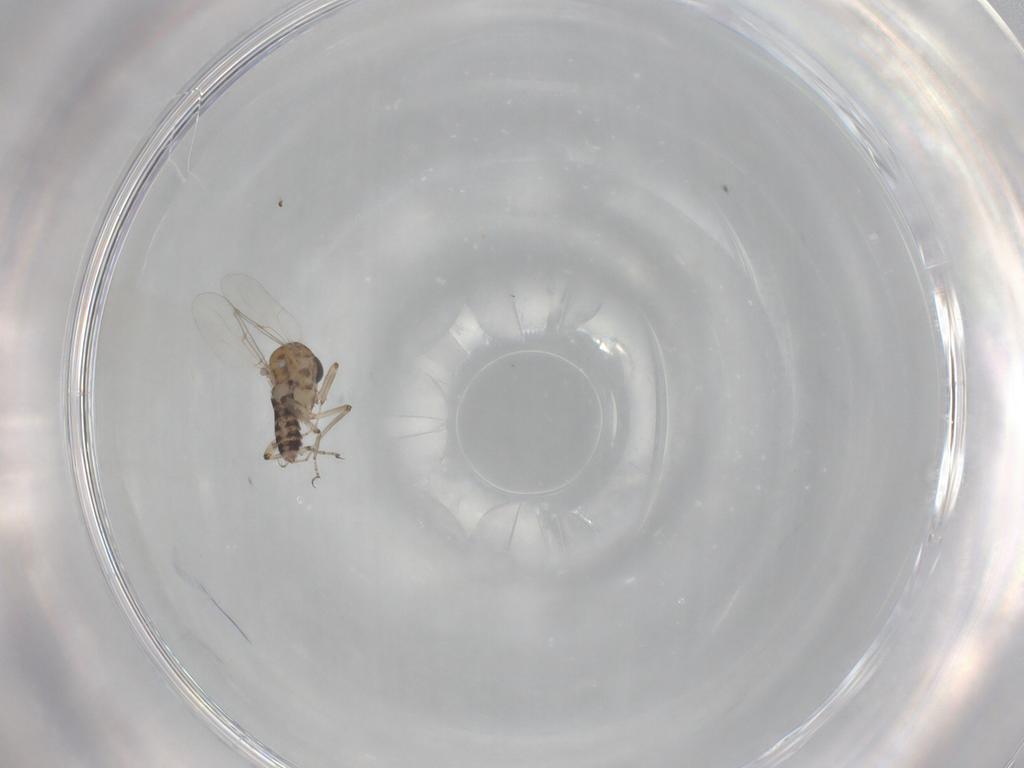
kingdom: Animalia
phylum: Arthropoda
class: Insecta
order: Diptera
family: Ceratopogonidae
